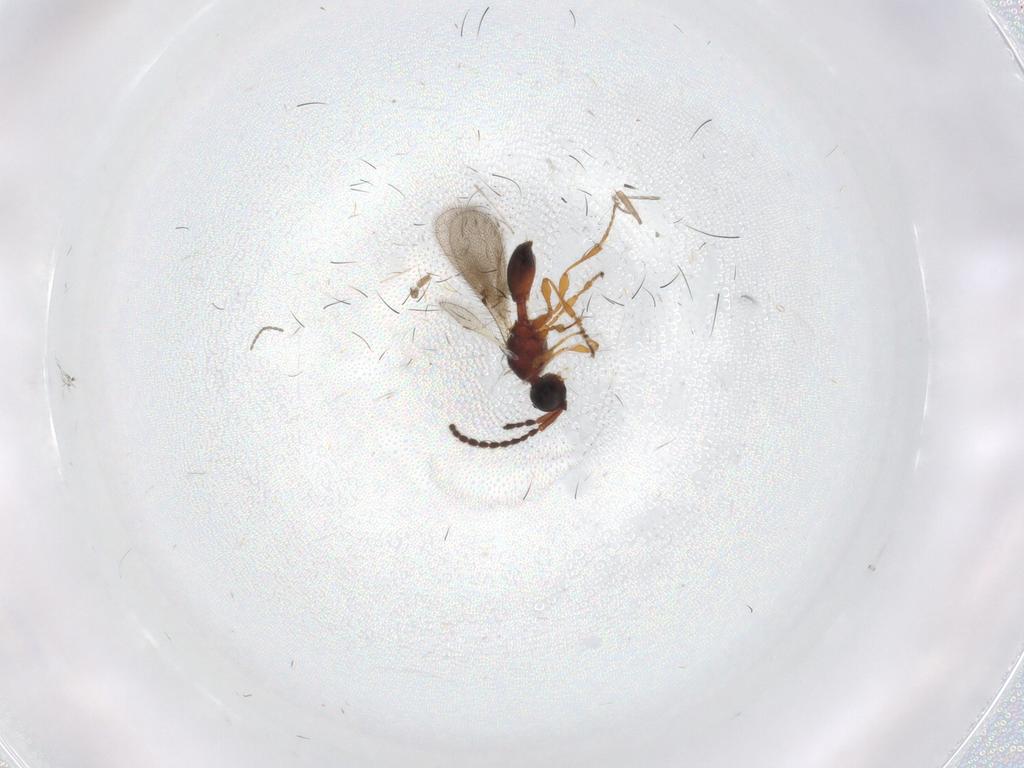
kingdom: Animalia
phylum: Arthropoda
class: Insecta
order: Hymenoptera
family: Diapriidae
